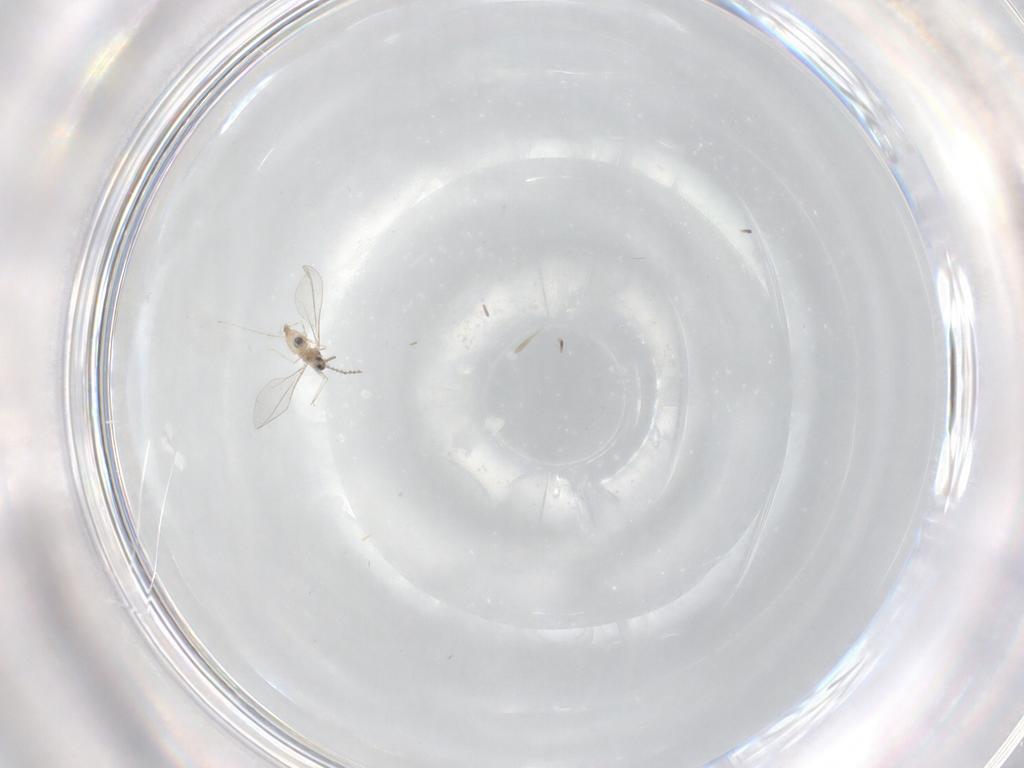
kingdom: Animalia
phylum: Arthropoda
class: Insecta
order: Diptera
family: Cecidomyiidae
